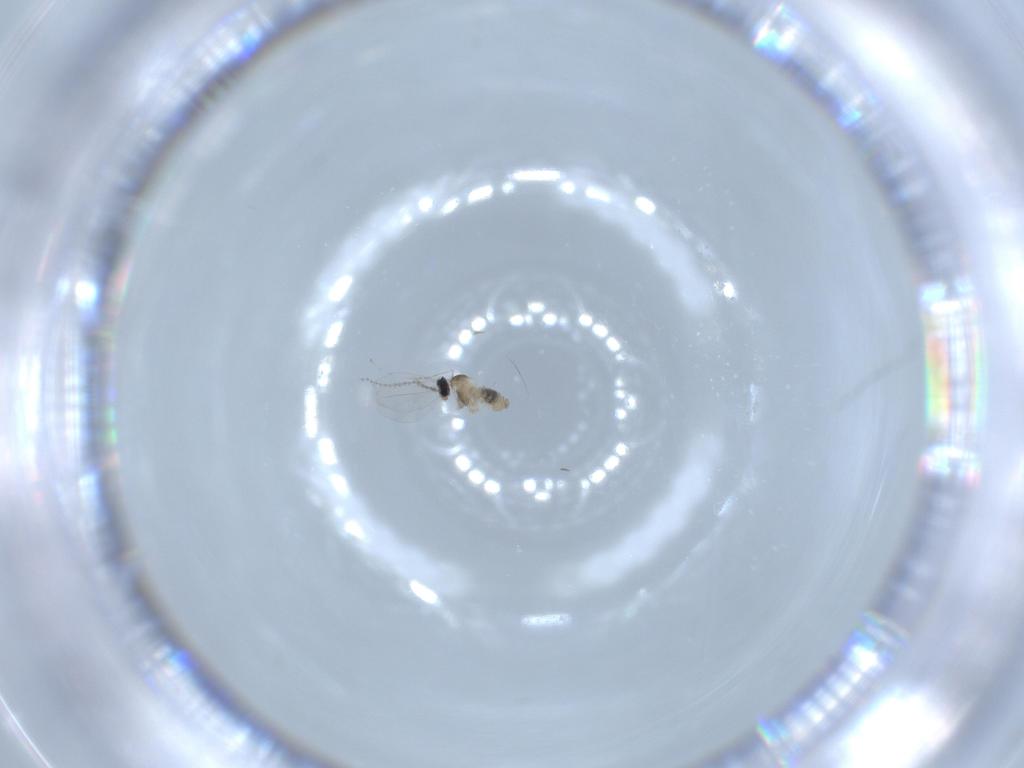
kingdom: Animalia
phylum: Arthropoda
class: Insecta
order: Diptera
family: Cecidomyiidae
